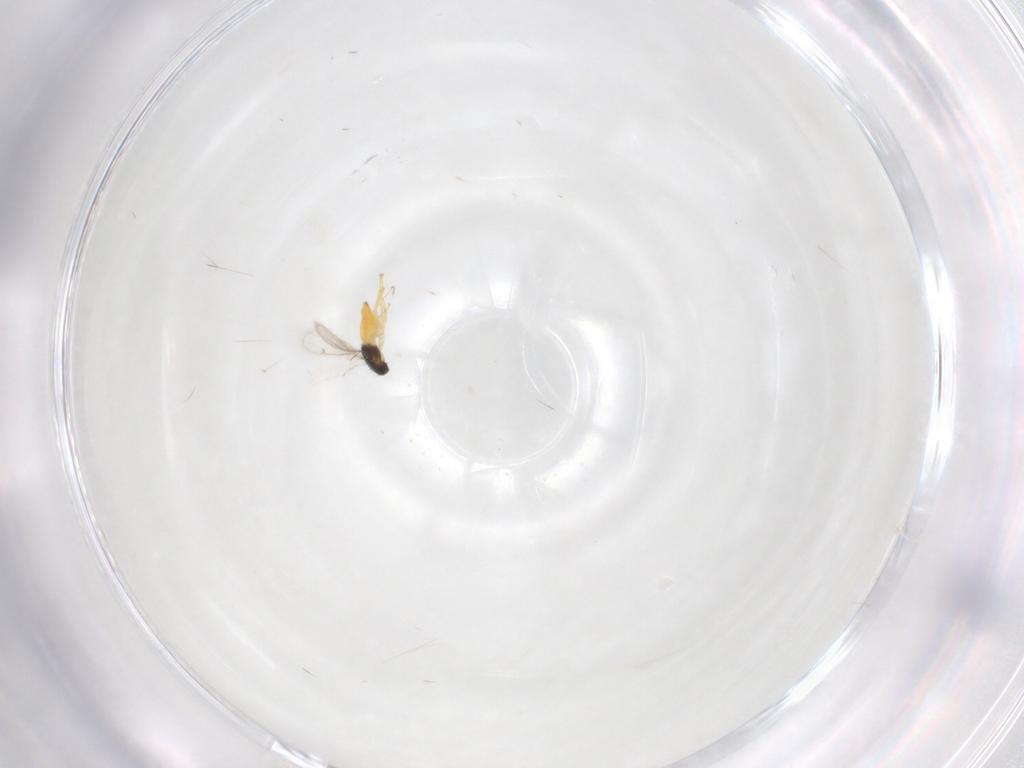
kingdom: Animalia
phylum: Arthropoda
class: Insecta
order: Hymenoptera
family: Eulophidae
